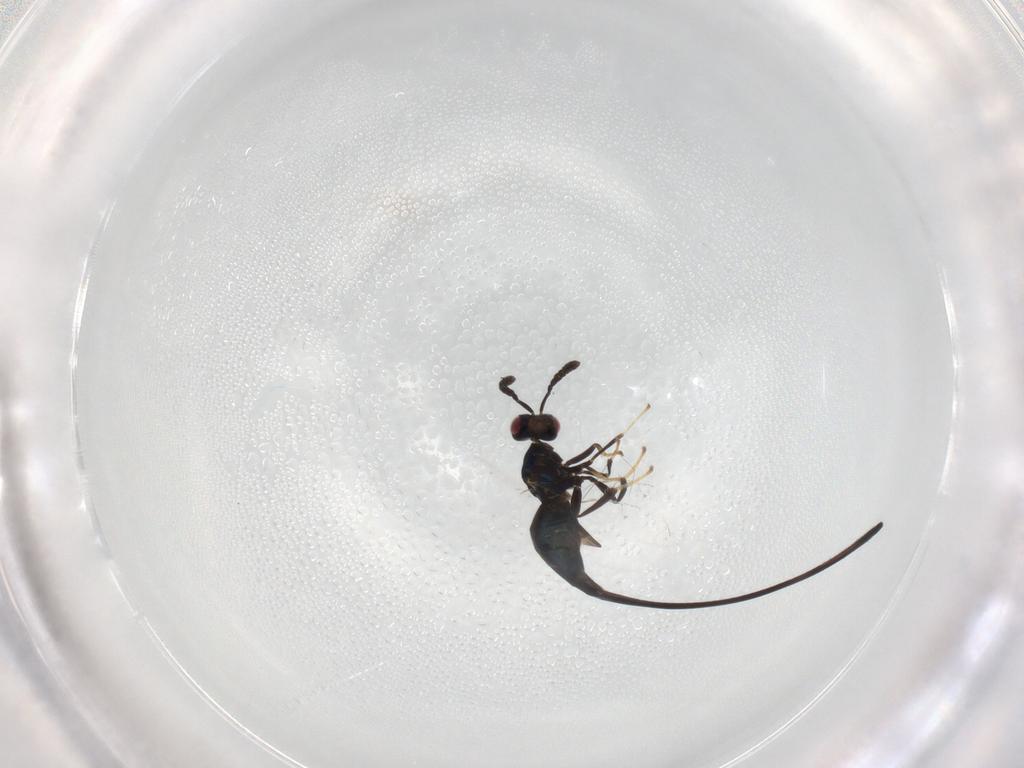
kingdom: Animalia
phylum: Arthropoda
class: Insecta
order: Hymenoptera
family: Pteromalidae
